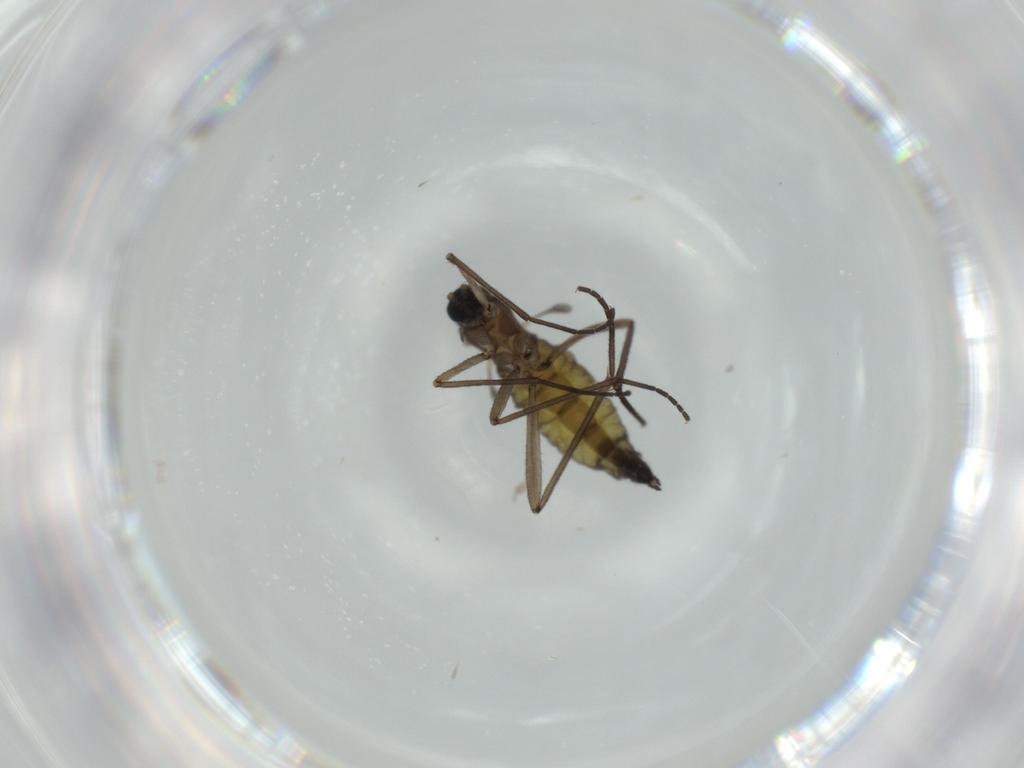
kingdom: Animalia
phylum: Arthropoda
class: Insecta
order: Diptera
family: Sciaridae
